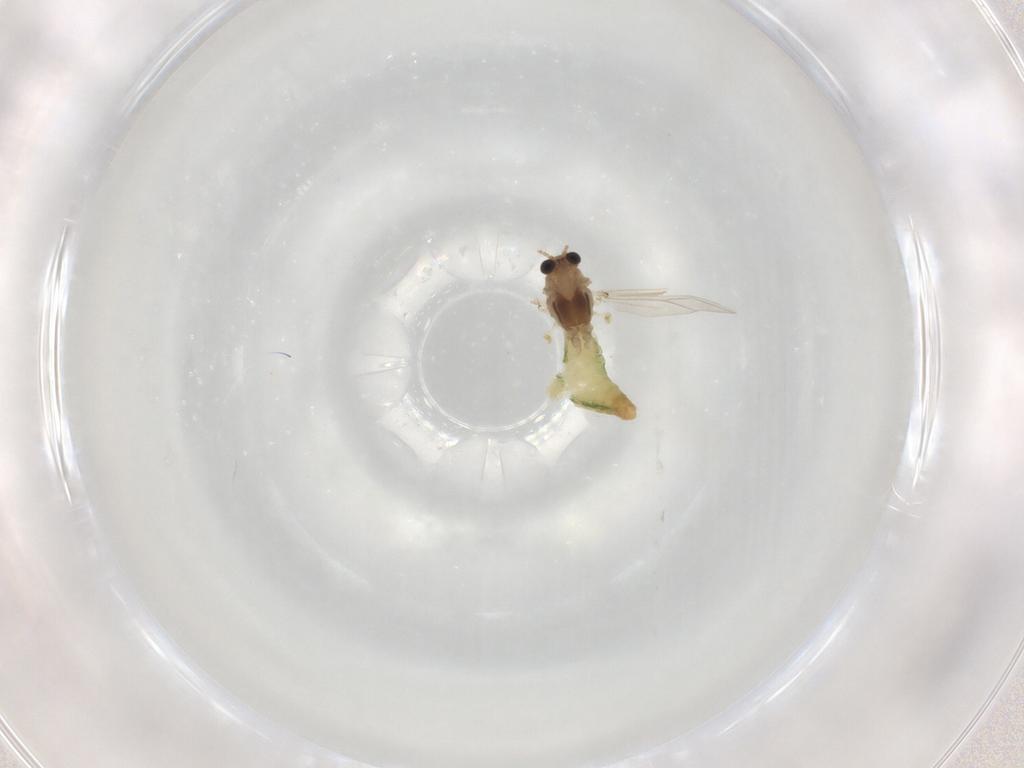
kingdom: Animalia
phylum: Arthropoda
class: Insecta
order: Diptera
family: Chironomidae
